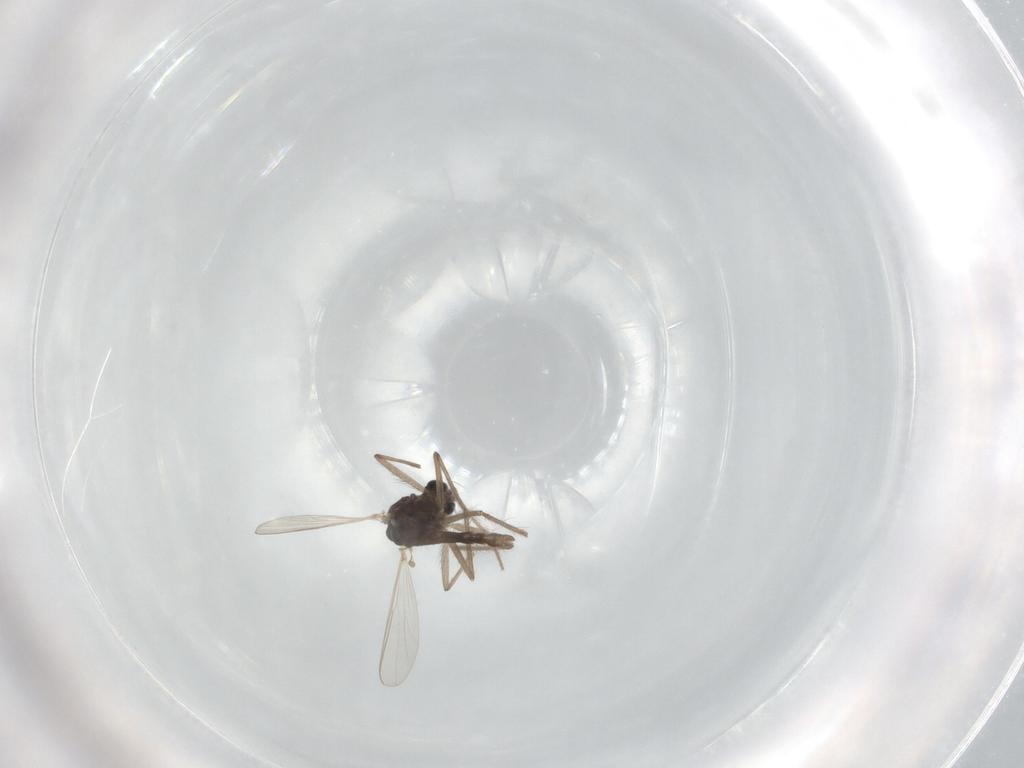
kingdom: Animalia
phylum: Arthropoda
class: Insecta
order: Diptera
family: Chironomidae
